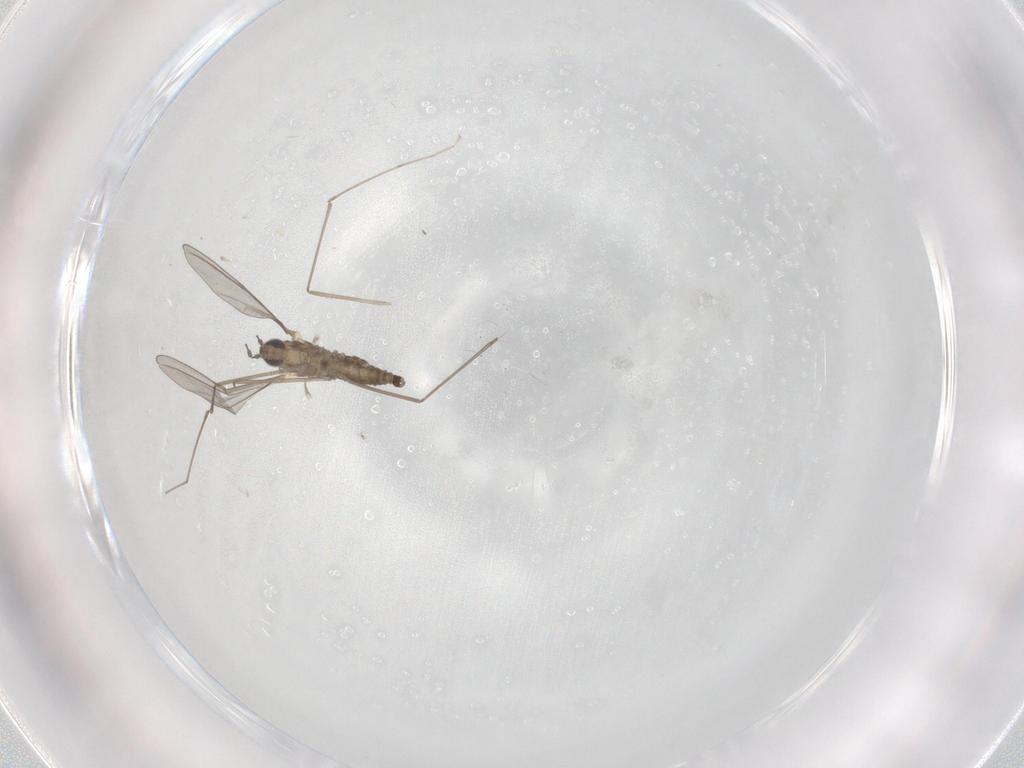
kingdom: Animalia
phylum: Arthropoda
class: Insecta
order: Diptera
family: Cecidomyiidae
